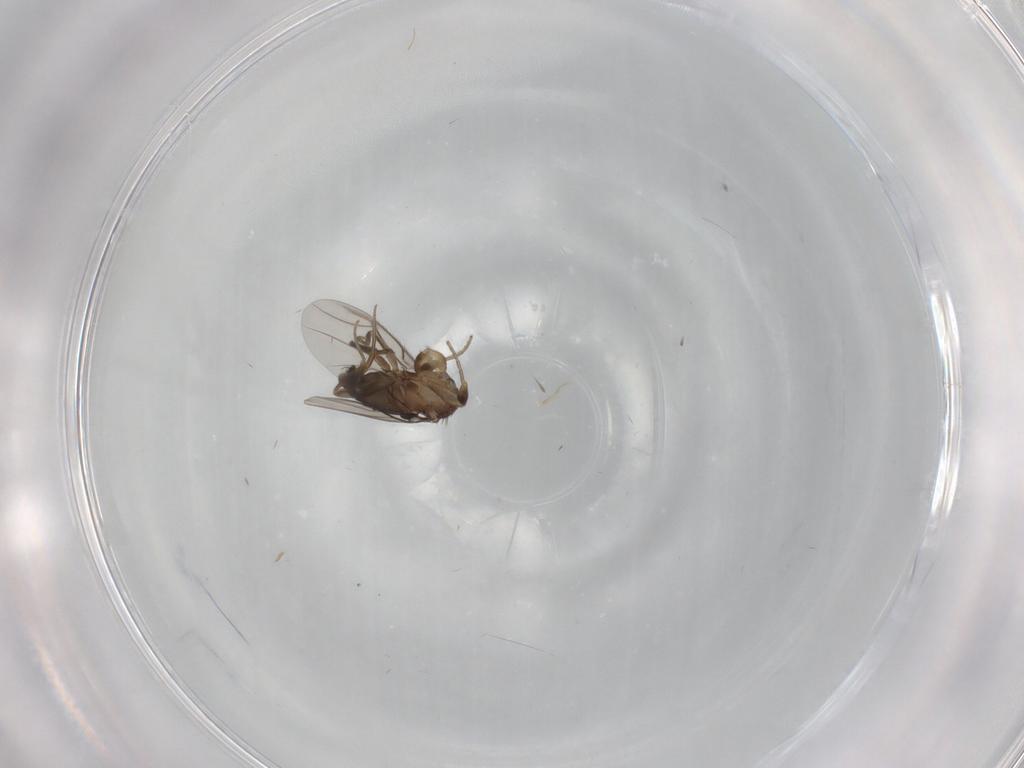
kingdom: Animalia
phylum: Arthropoda
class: Insecta
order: Diptera
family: Phoridae
